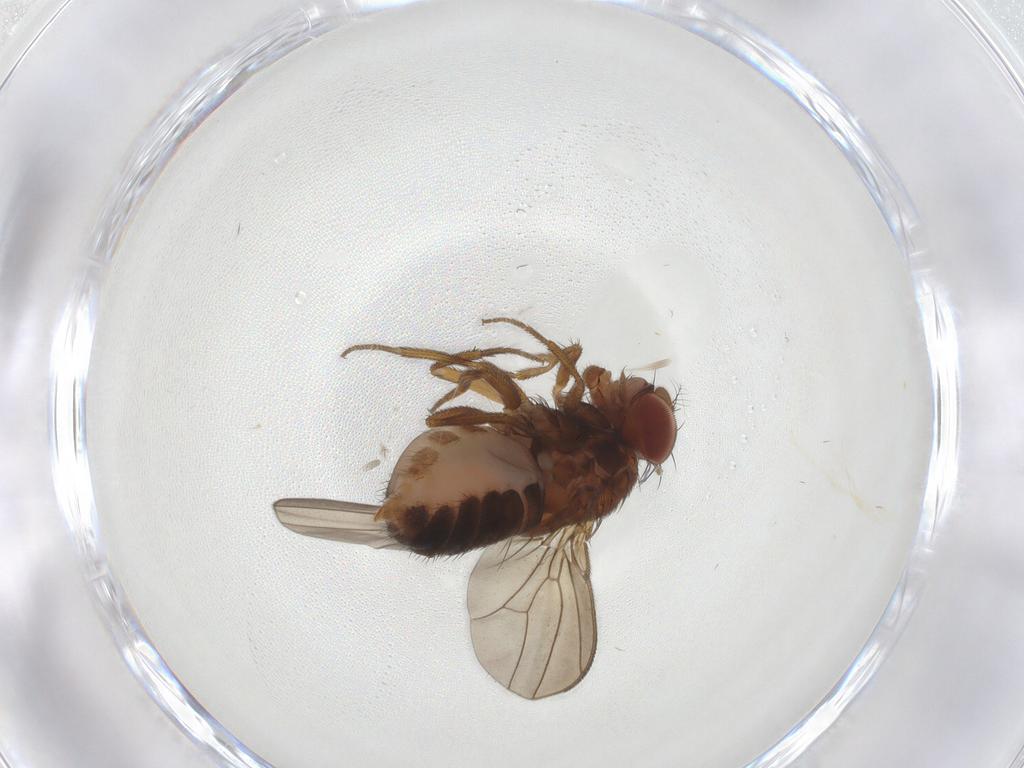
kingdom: Animalia
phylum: Arthropoda
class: Insecta
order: Diptera
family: Drosophilidae
